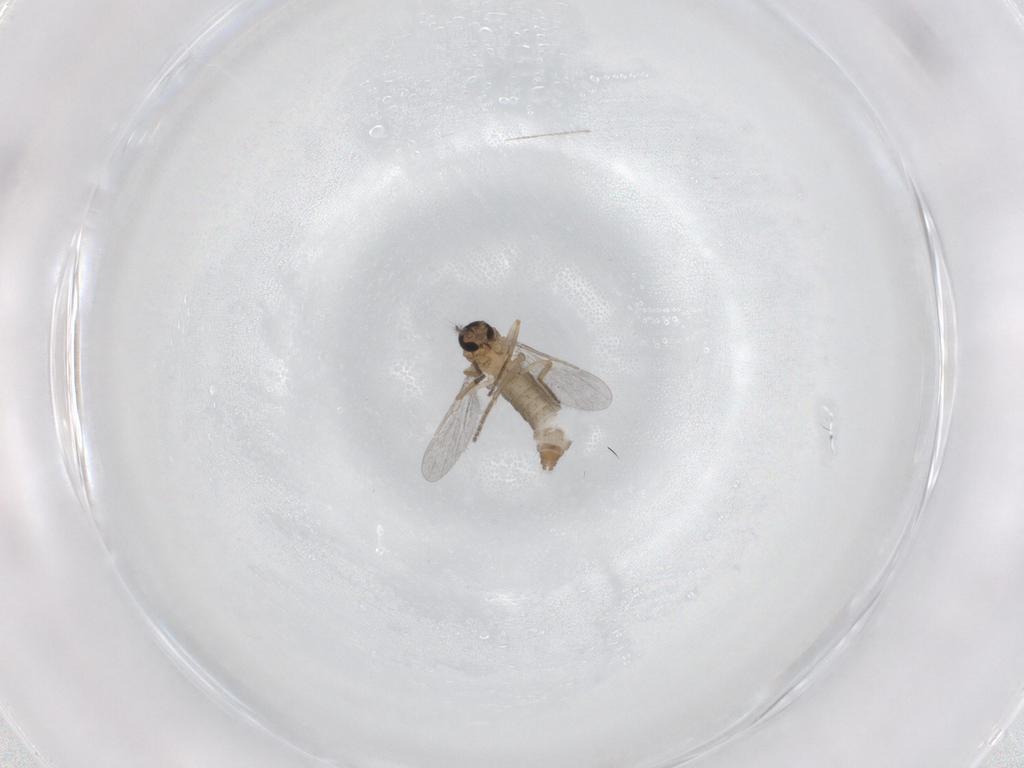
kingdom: Animalia
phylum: Arthropoda
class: Insecta
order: Diptera
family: Ceratopogonidae
